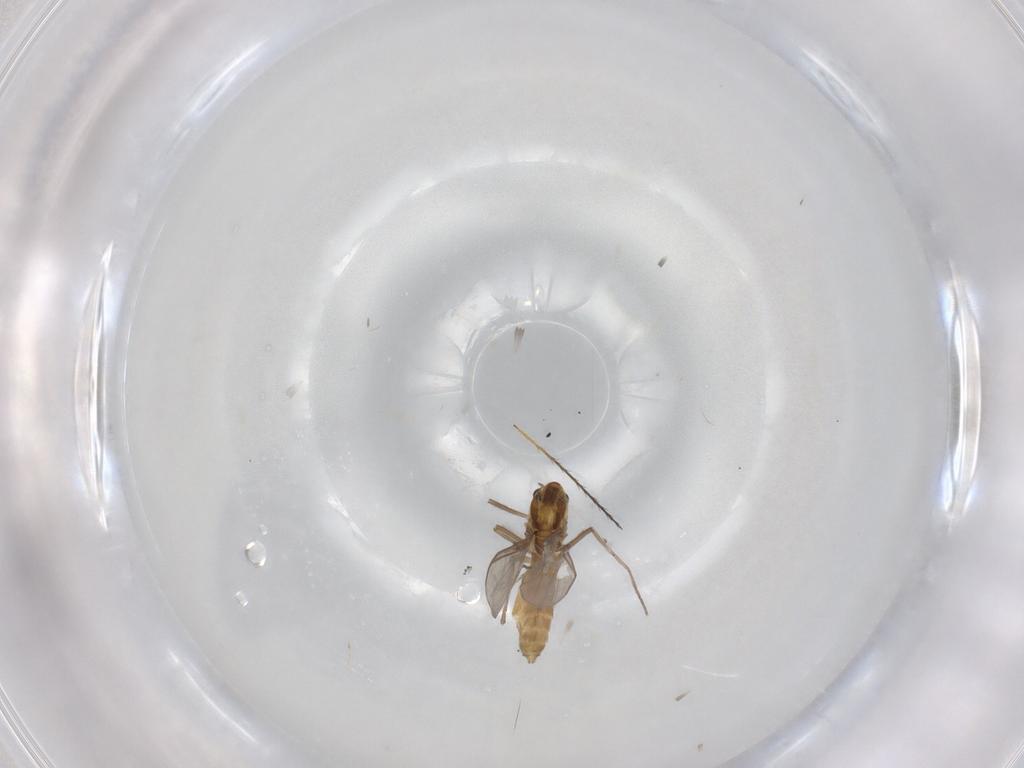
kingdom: Animalia
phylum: Arthropoda
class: Insecta
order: Diptera
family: Chironomidae
